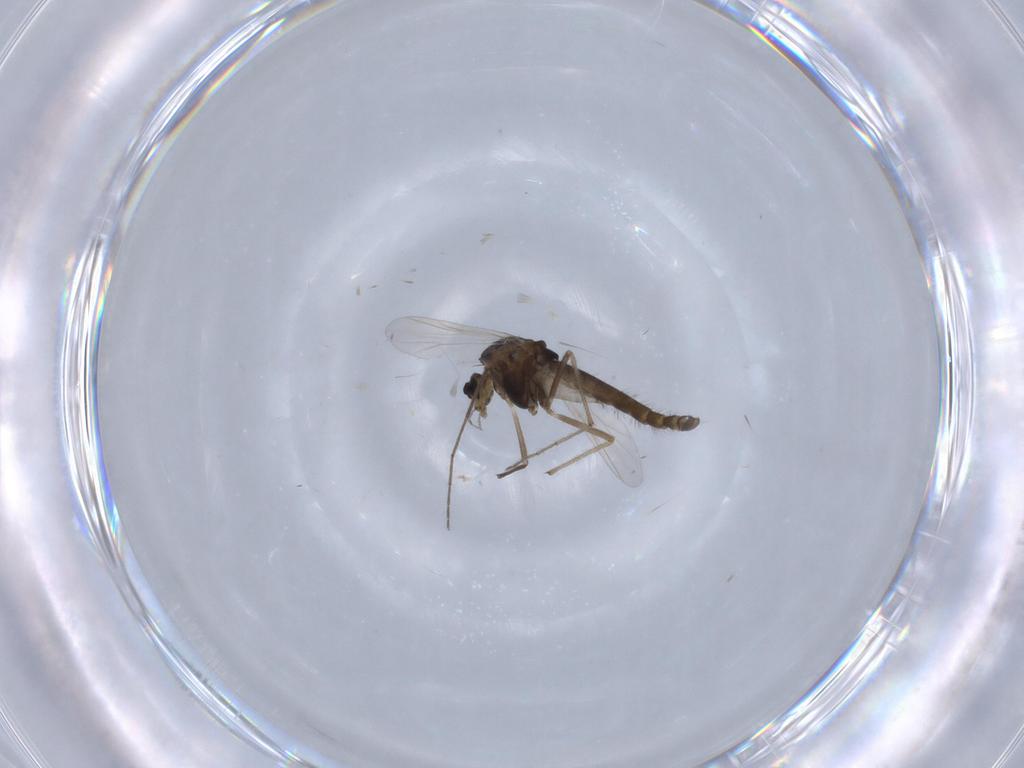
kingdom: Animalia
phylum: Arthropoda
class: Insecta
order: Diptera
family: Chironomidae
